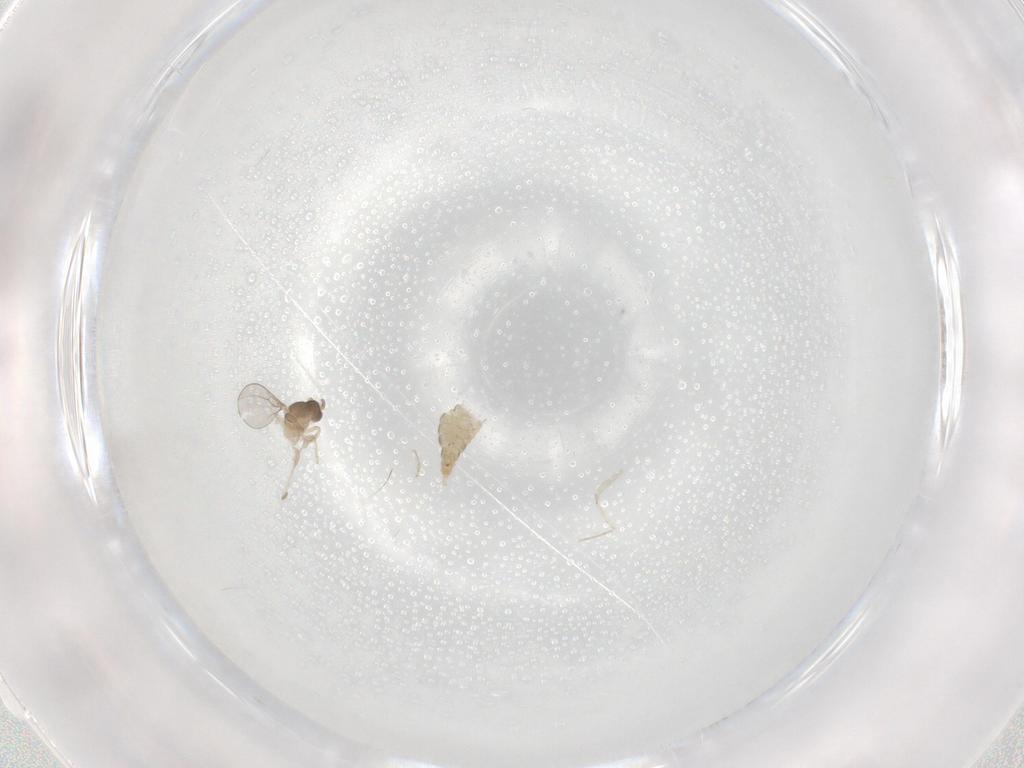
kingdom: Animalia
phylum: Arthropoda
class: Insecta
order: Diptera
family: Cecidomyiidae
